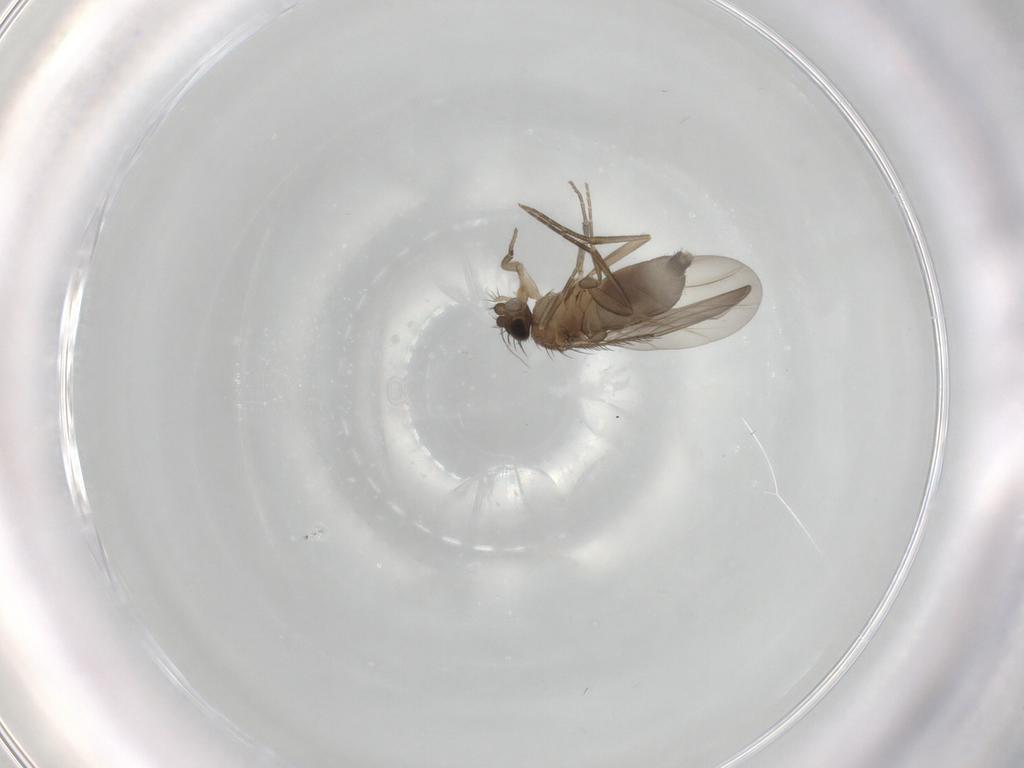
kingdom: Animalia
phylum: Arthropoda
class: Insecta
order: Diptera
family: Phoridae
